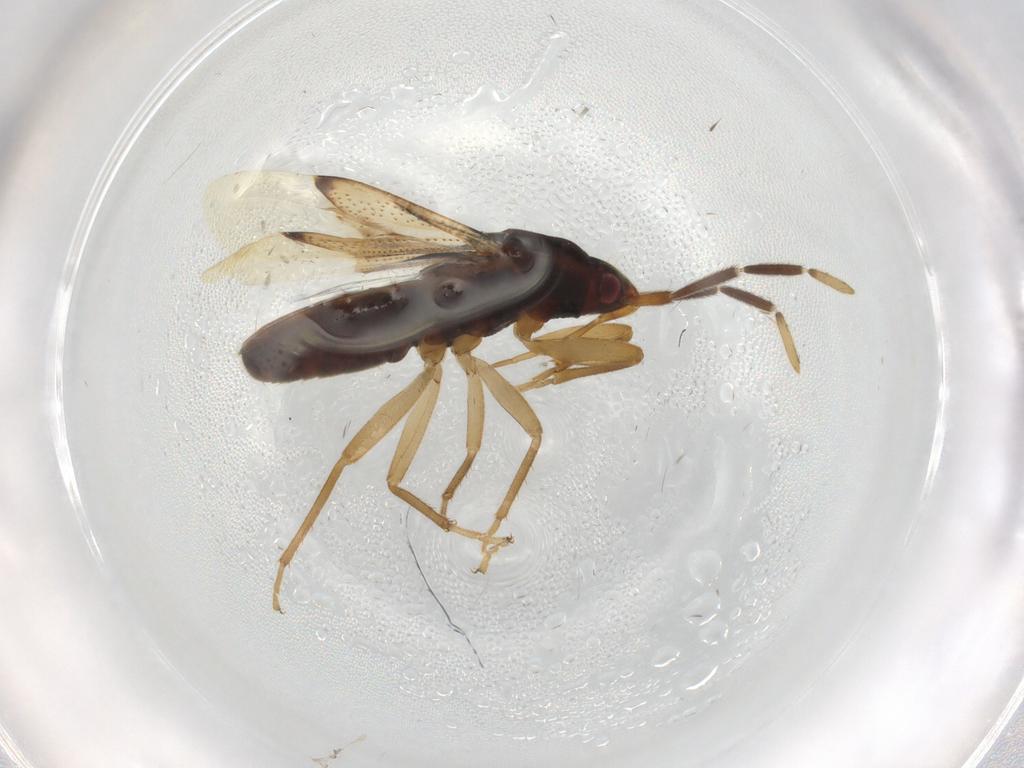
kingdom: Animalia
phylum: Arthropoda
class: Insecta
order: Hemiptera
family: Rhyparochromidae
